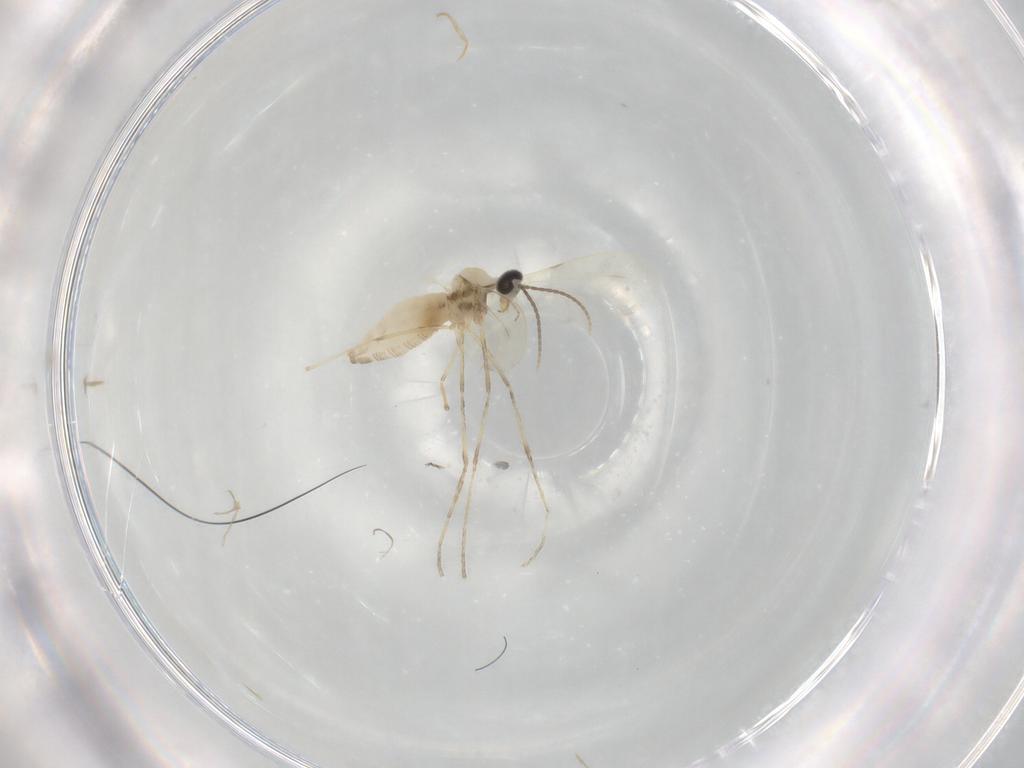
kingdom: Animalia
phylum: Arthropoda
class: Insecta
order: Diptera
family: Cecidomyiidae
